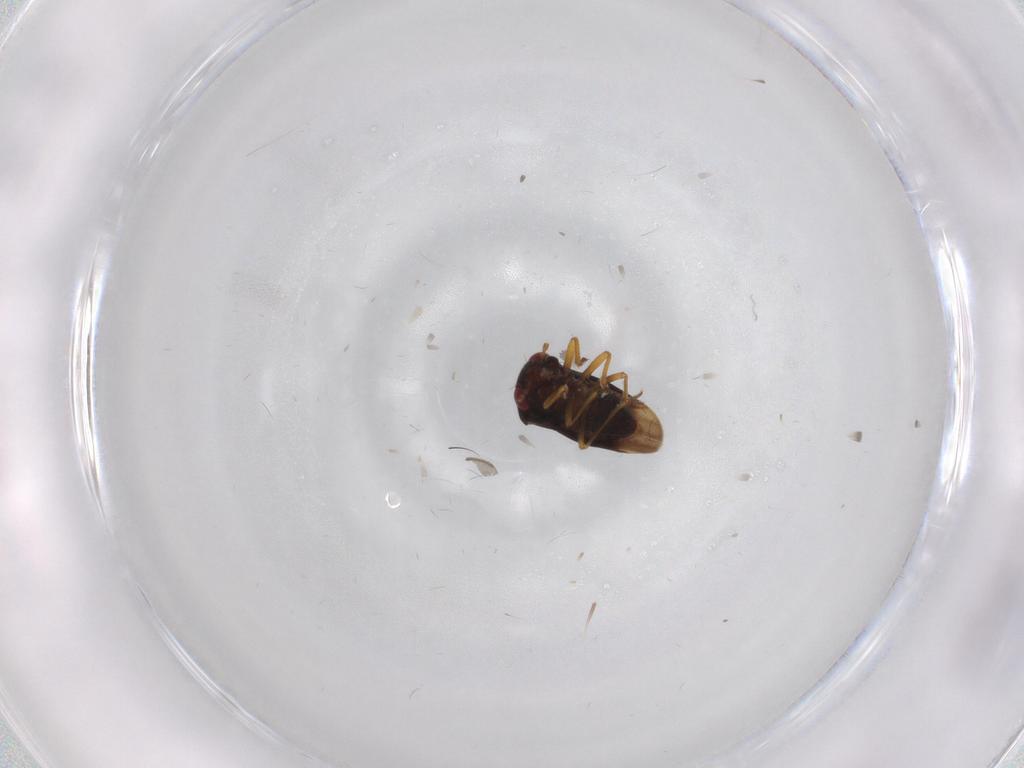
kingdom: Animalia
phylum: Arthropoda
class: Insecta
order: Hemiptera
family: Schizopteridae
